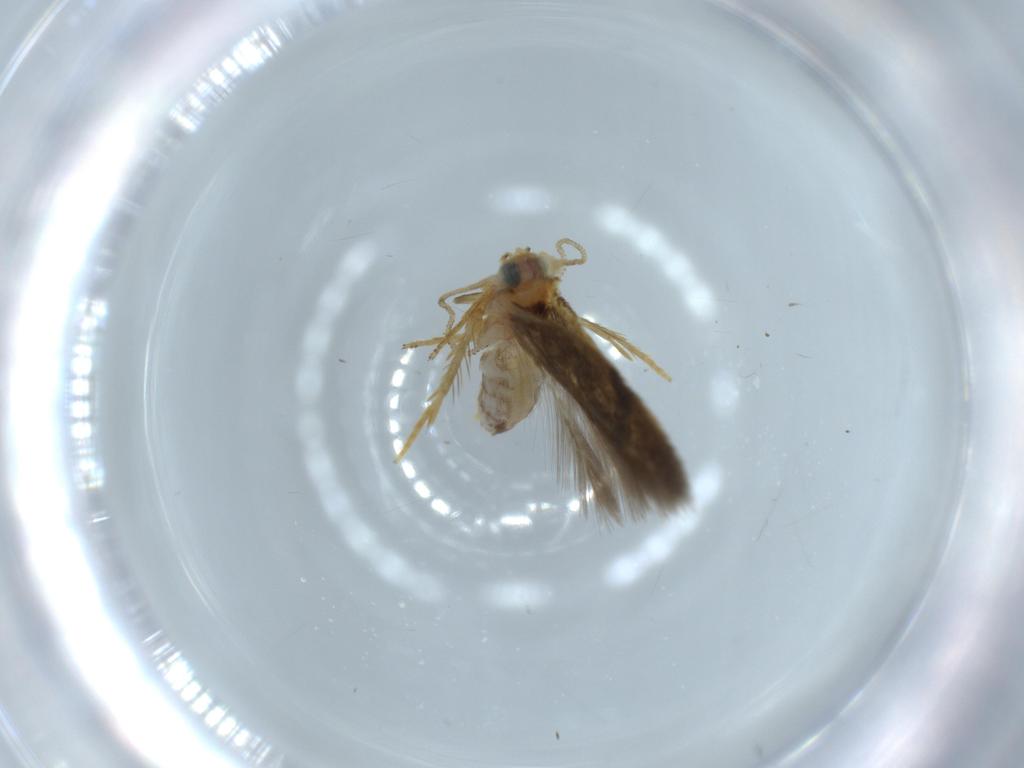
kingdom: Animalia
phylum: Arthropoda
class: Insecta
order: Lepidoptera
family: Nepticulidae
